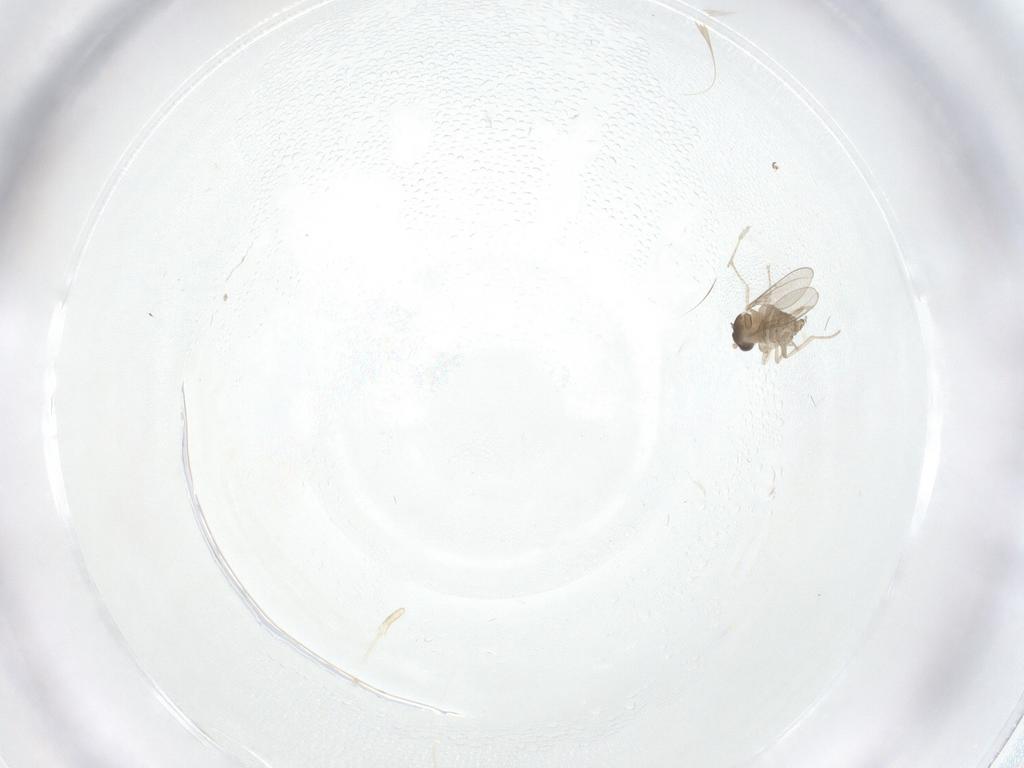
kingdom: Animalia
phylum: Arthropoda
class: Insecta
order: Diptera
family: Cecidomyiidae
